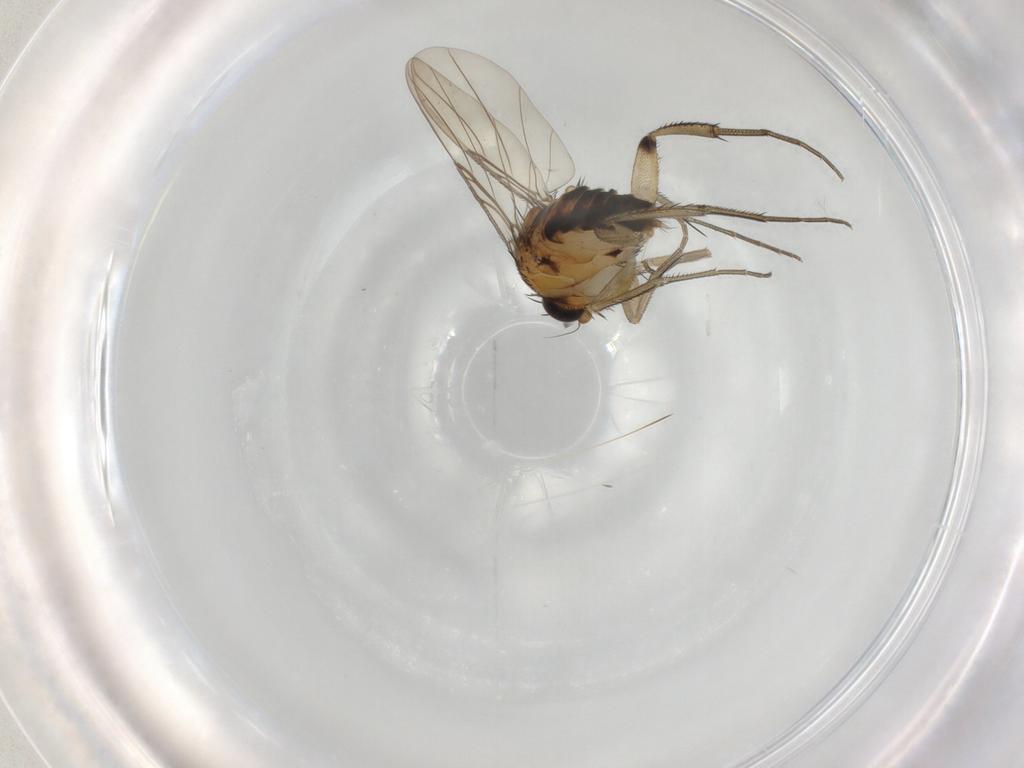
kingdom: Animalia
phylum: Arthropoda
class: Insecta
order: Diptera
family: Phoridae
